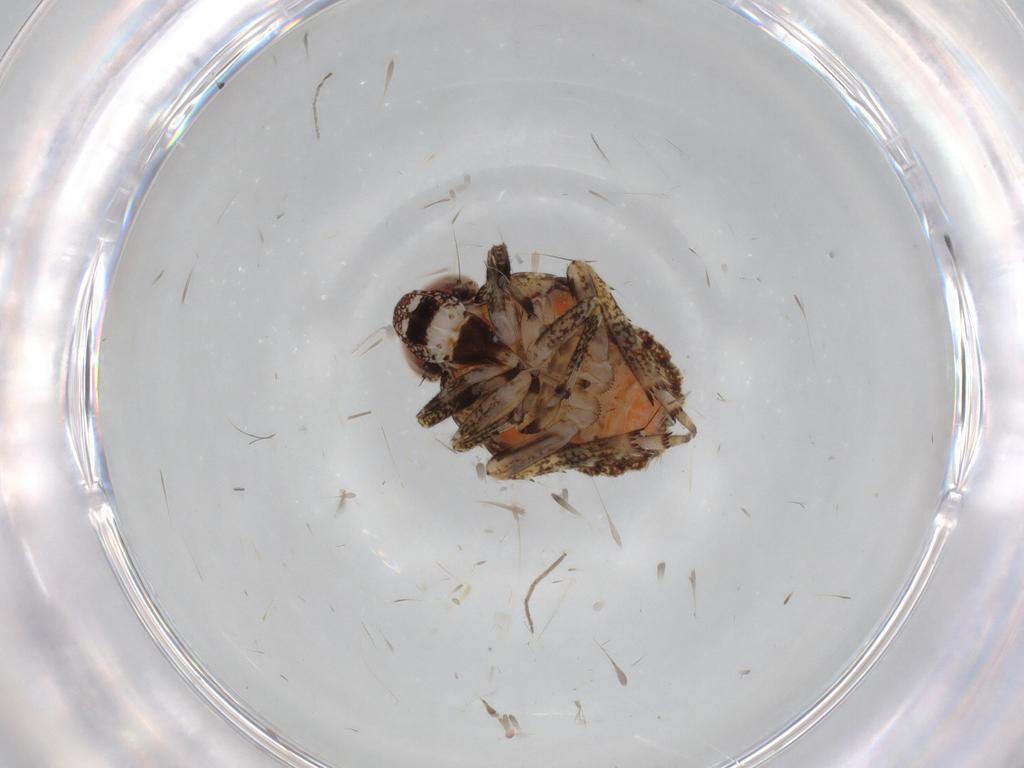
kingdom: Animalia
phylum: Arthropoda
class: Insecta
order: Hemiptera
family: Issidae
